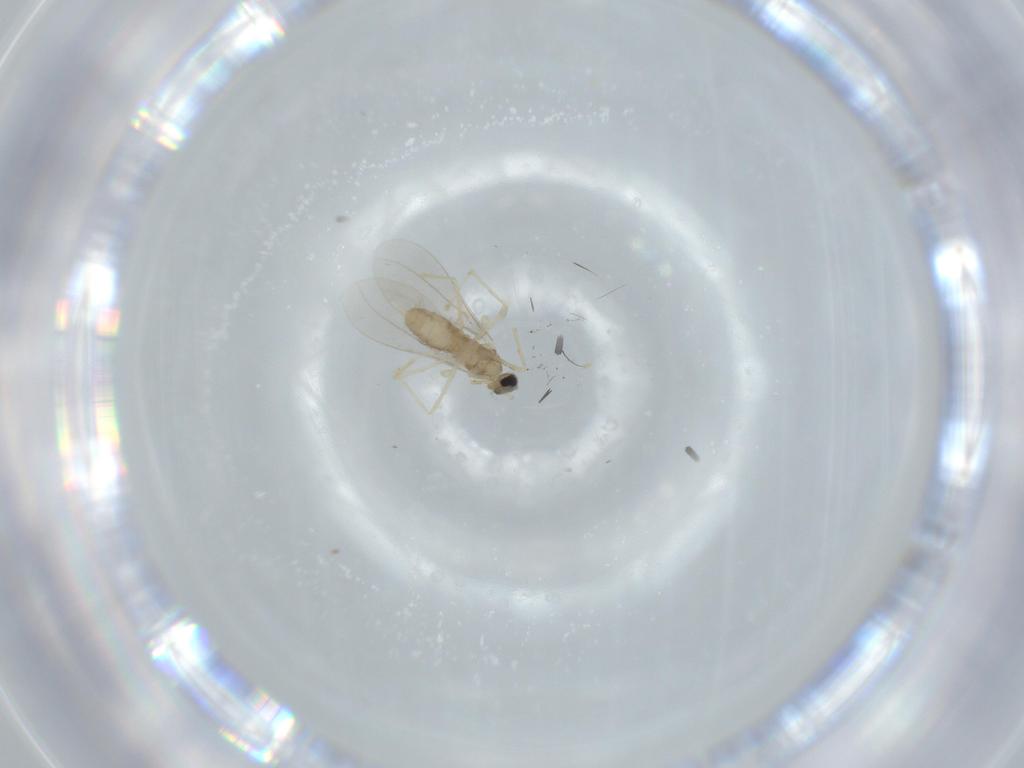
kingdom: Animalia
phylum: Arthropoda
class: Insecta
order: Diptera
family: Cecidomyiidae
